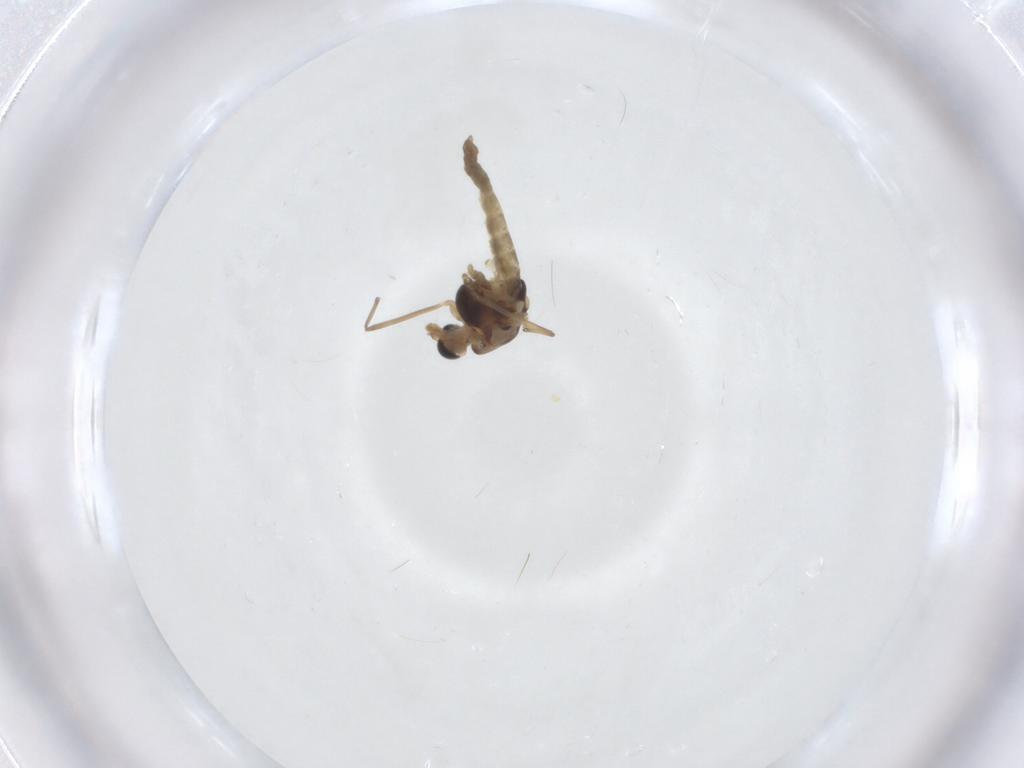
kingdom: Animalia
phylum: Arthropoda
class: Insecta
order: Diptera
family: Chironomidae
